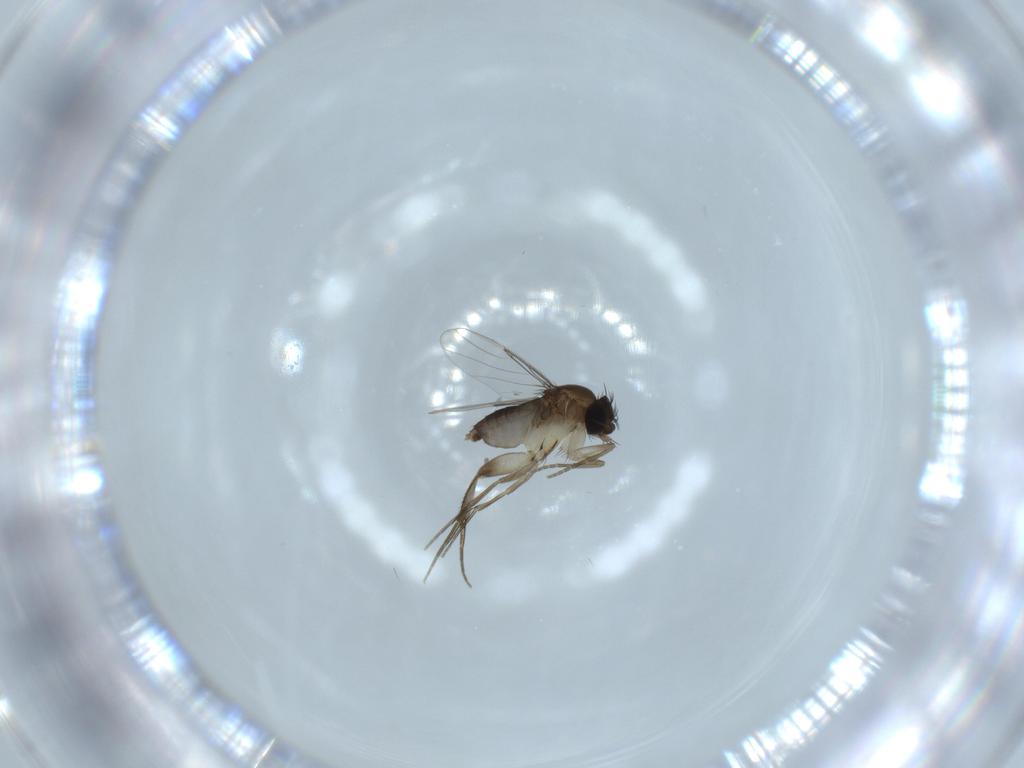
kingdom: Animalia
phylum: Arthropoda
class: Insecta
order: Diptera
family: Phoridae
